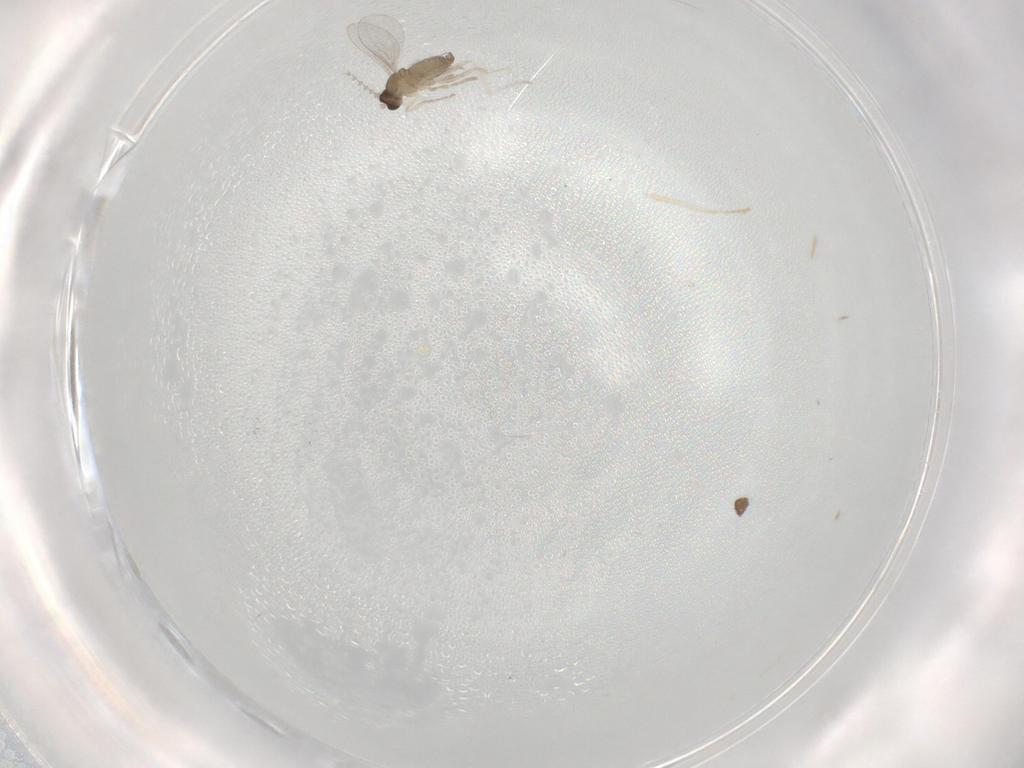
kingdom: Animalia
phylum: Arthropoda
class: Insecta
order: Diptera
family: Cecidomyiidae
